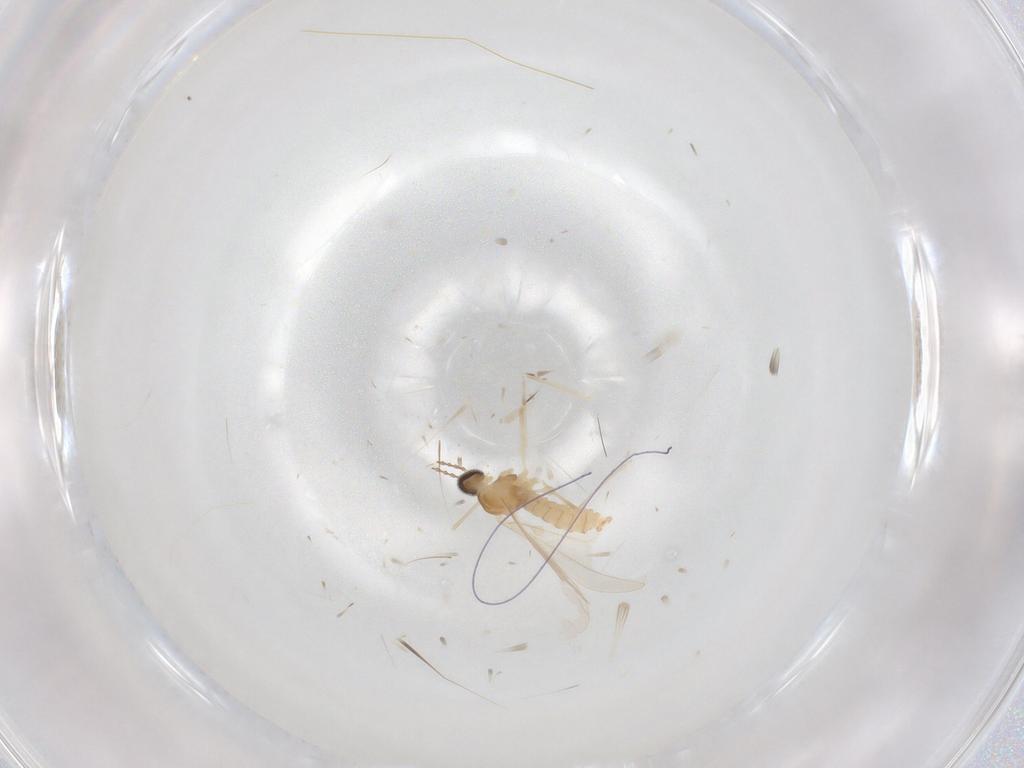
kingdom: Animalia
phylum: Arthropoda
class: Insecta
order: Diptera
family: Cecidomyiidae
